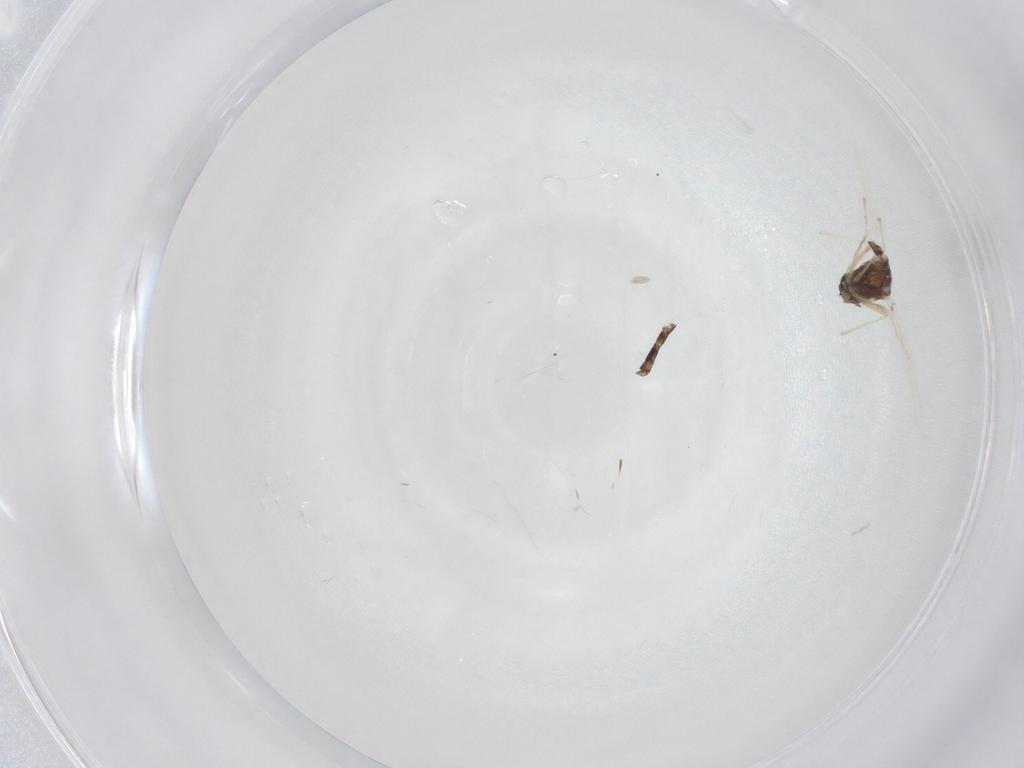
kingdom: Animalia
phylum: Arthropoda
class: Insecta
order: Diptera
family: Chironomidae
